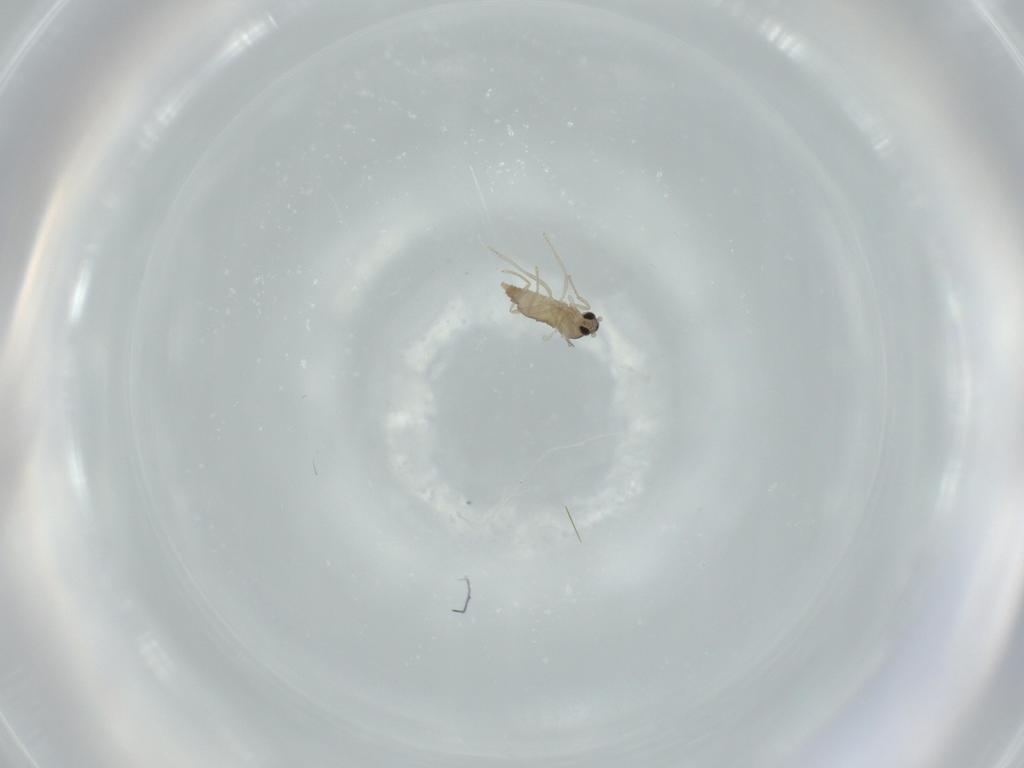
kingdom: Animalia
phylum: Arthropoda
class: Insecta
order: Diptera
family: Cecidomyiidae
